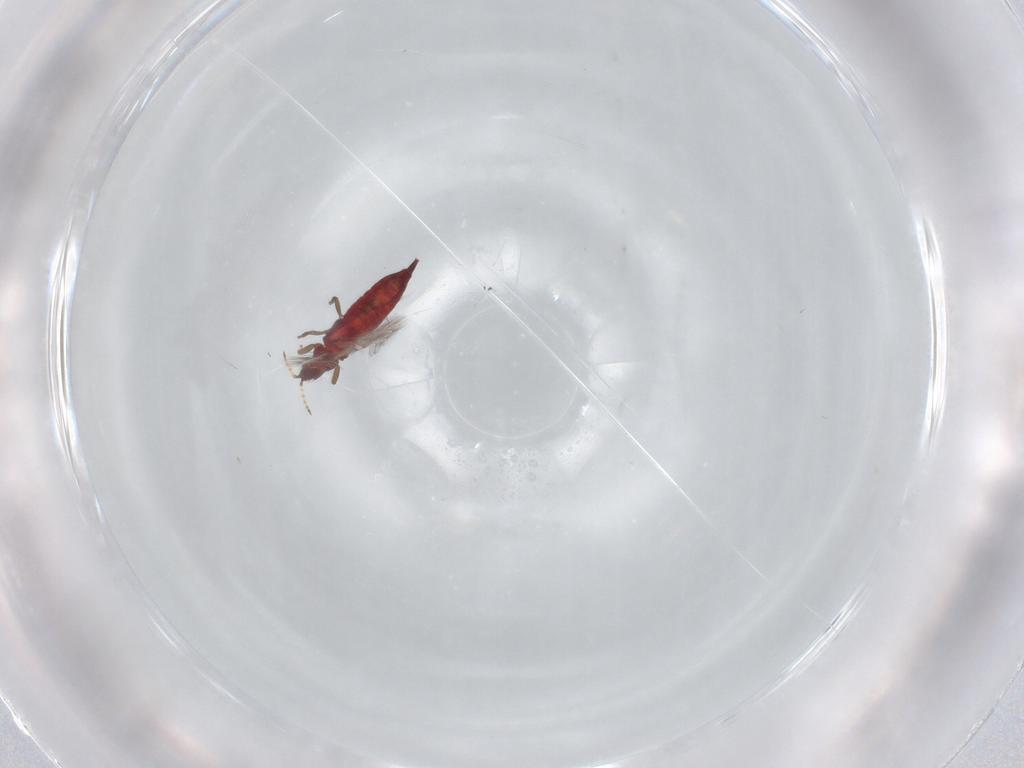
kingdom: Animalia
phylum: Arthropoda
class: Insecta
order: Thysanoptera
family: Phlaeothripidae
